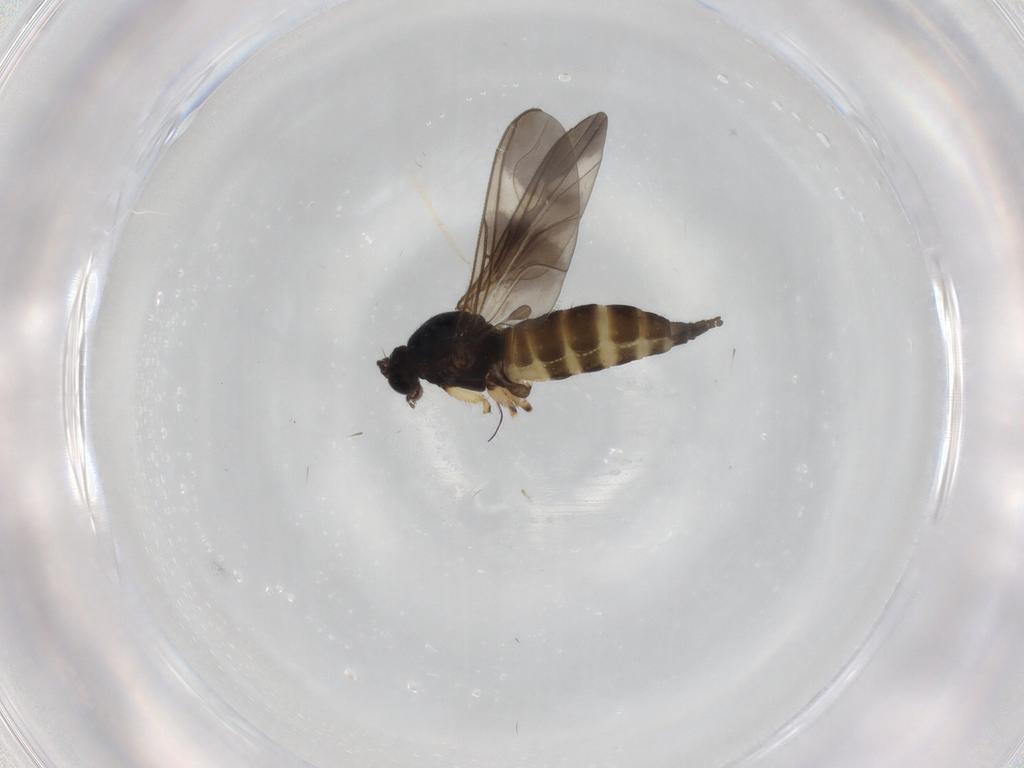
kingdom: Animalia
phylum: Arthropoda
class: Insecta
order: Diptera
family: Sciaridae
